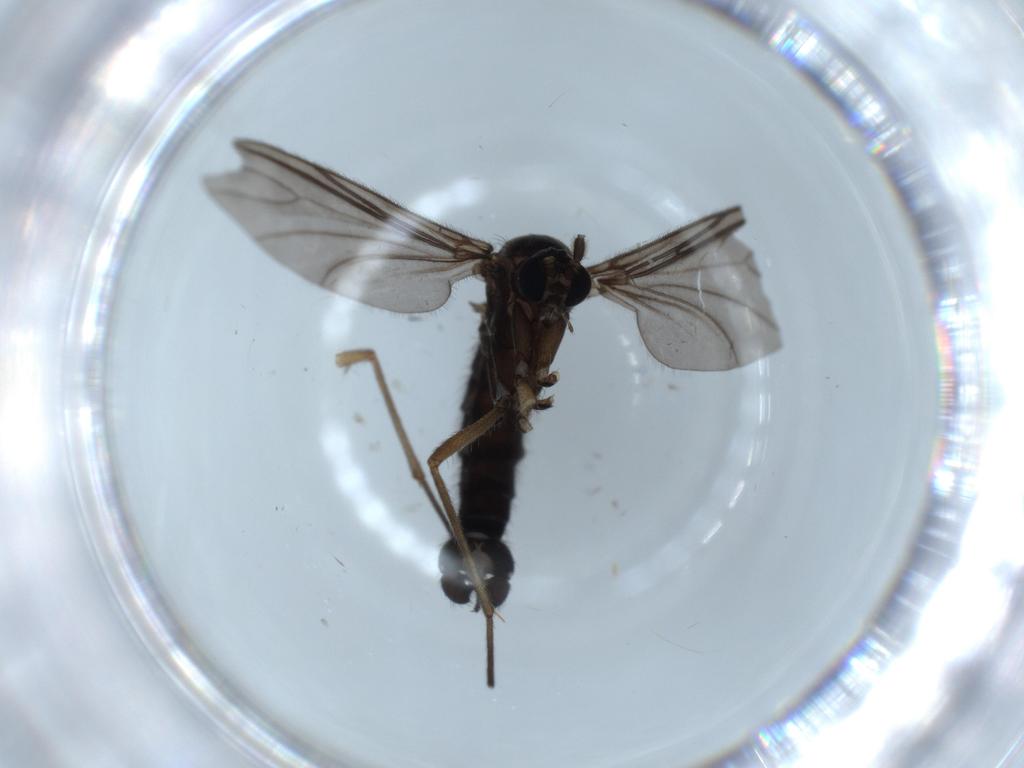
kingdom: Animalia
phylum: Arthropoda
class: Insecta
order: Diptera
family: Sciaridae
